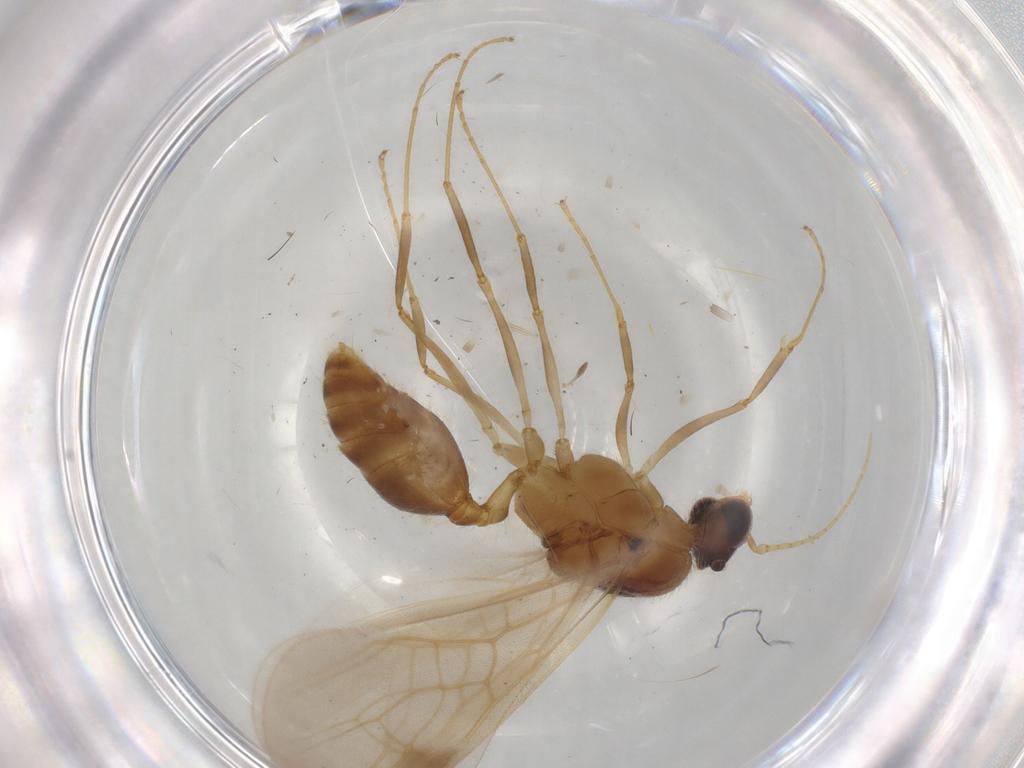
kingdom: Animalia
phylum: Arthropoda
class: Insecta
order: Hymenoptera
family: Formicidae
